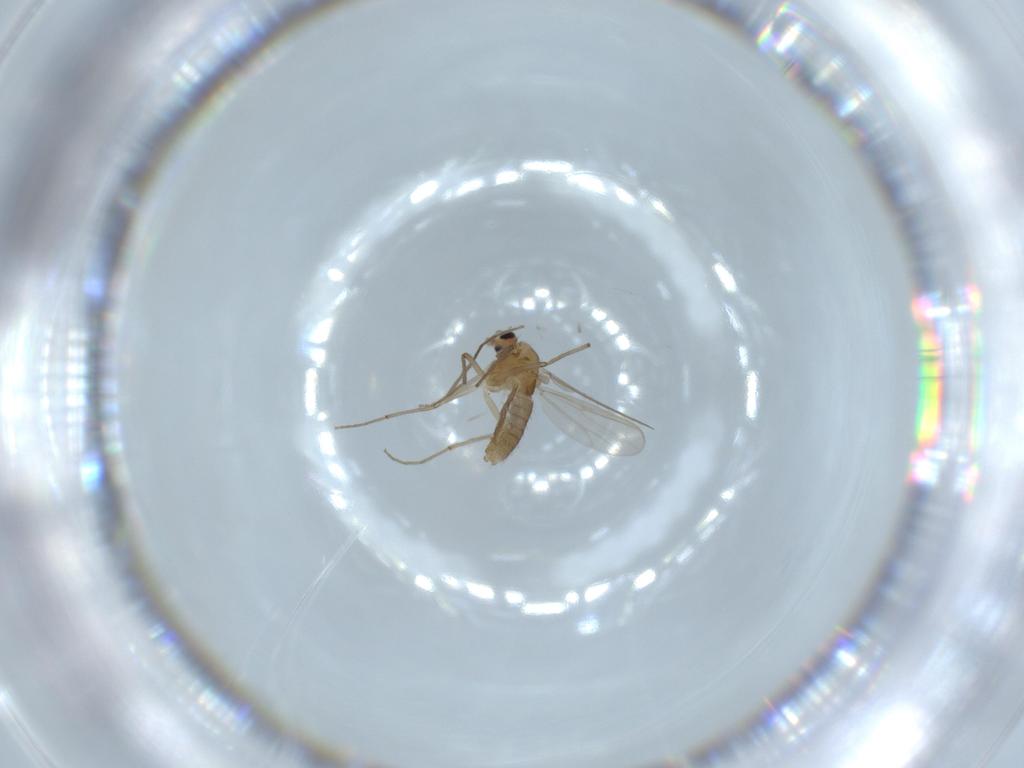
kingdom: Animalia
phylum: Arthropoda
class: Insecta
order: Diptera
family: Chironomidae
